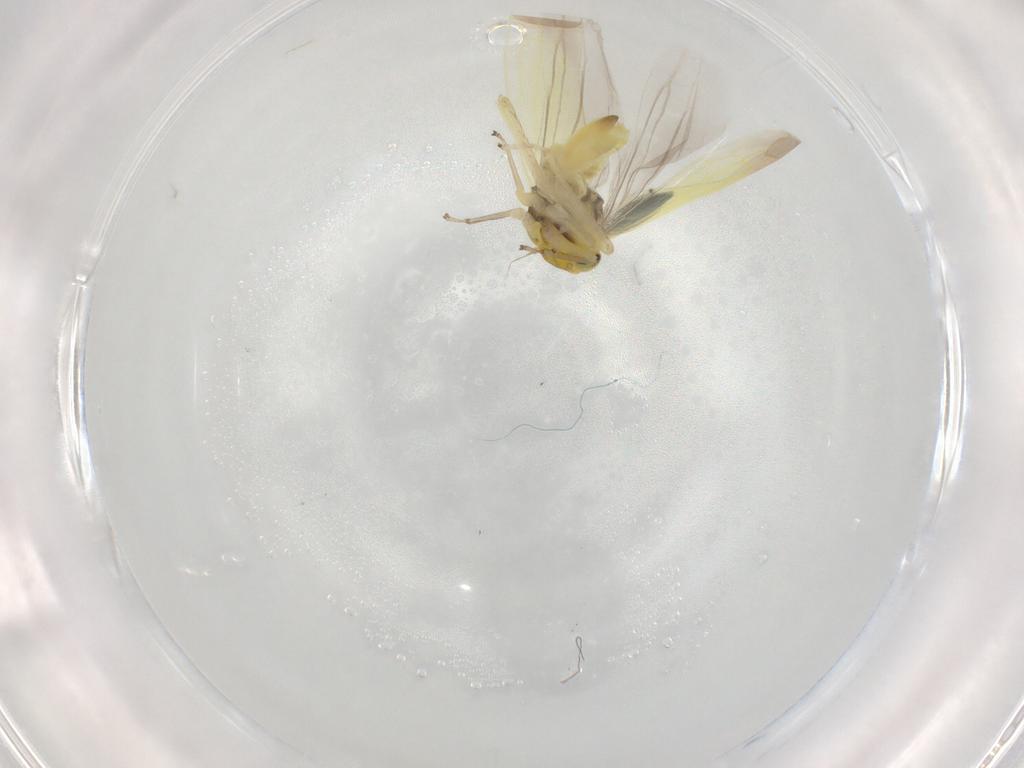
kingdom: Animalia
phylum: Arthropoda
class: Insecta
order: Hemiptera
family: Cicadellidae
